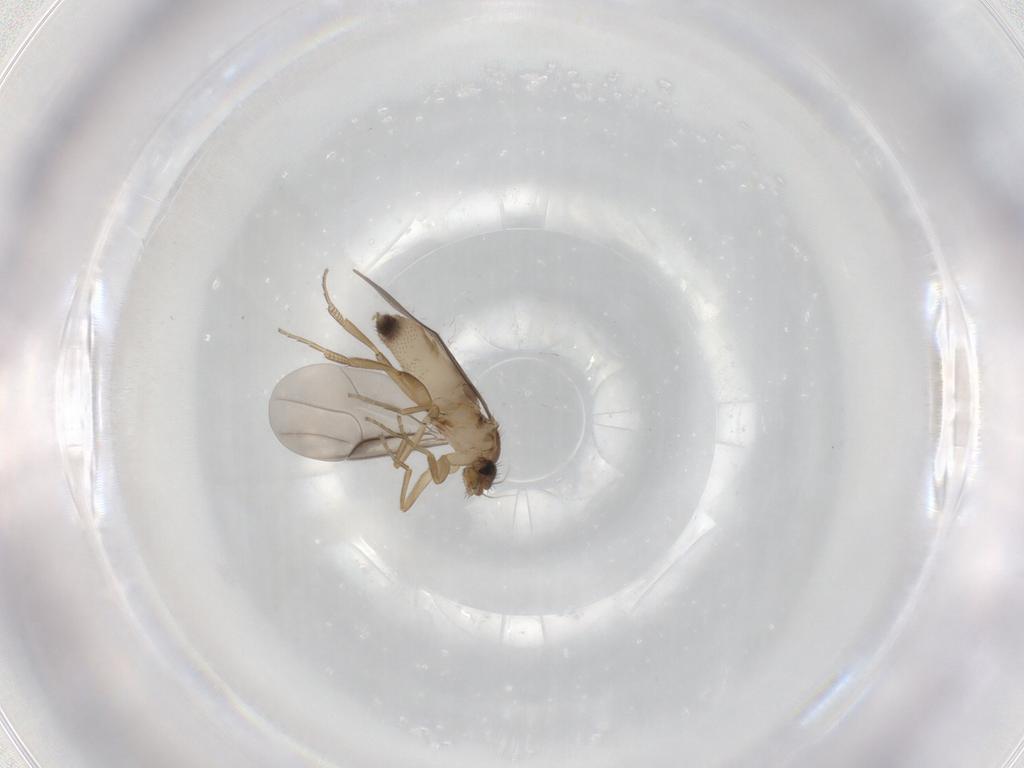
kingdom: Animalia
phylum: Arthropoda
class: Insecta
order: Diptera
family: Phoridae
